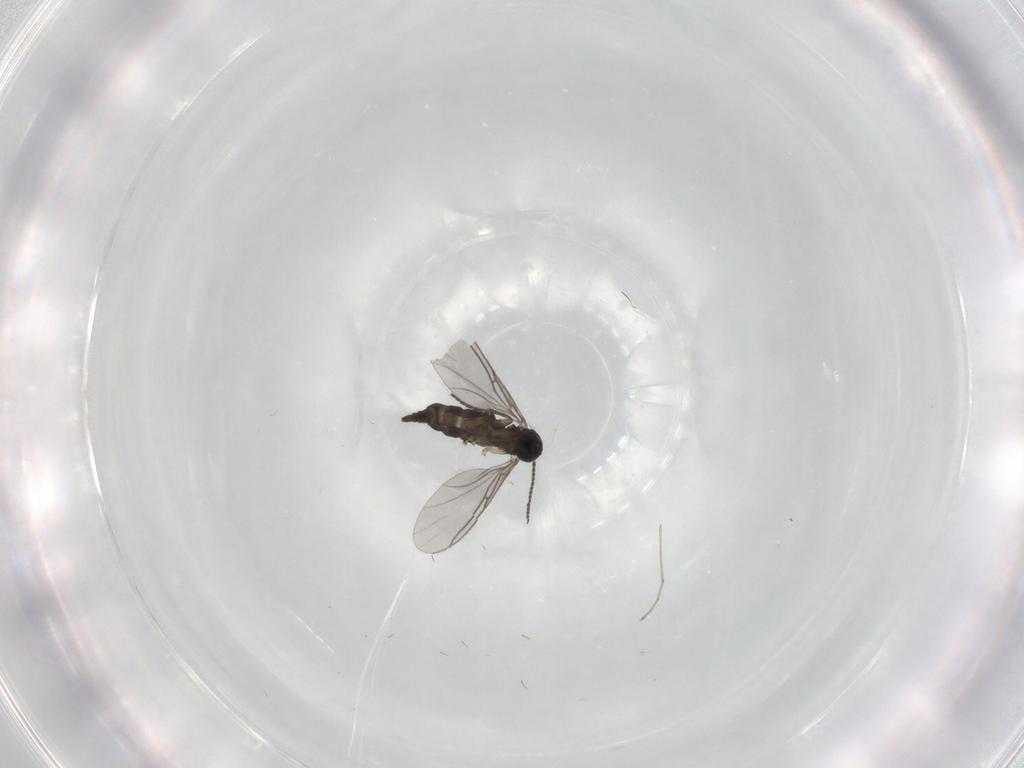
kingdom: Animalia
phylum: Arthropoda
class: Insecta
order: Diptera
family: Sciaridae
